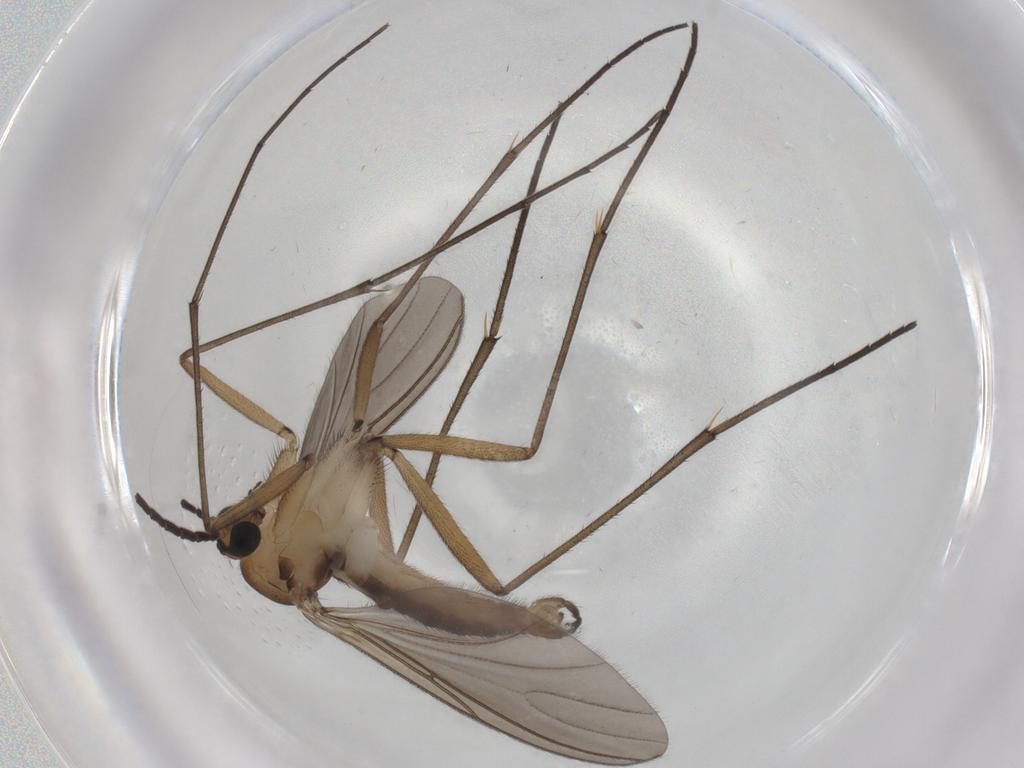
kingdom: Animalia
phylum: Arthropoda
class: Insecta
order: Diptera
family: Sciaridae
